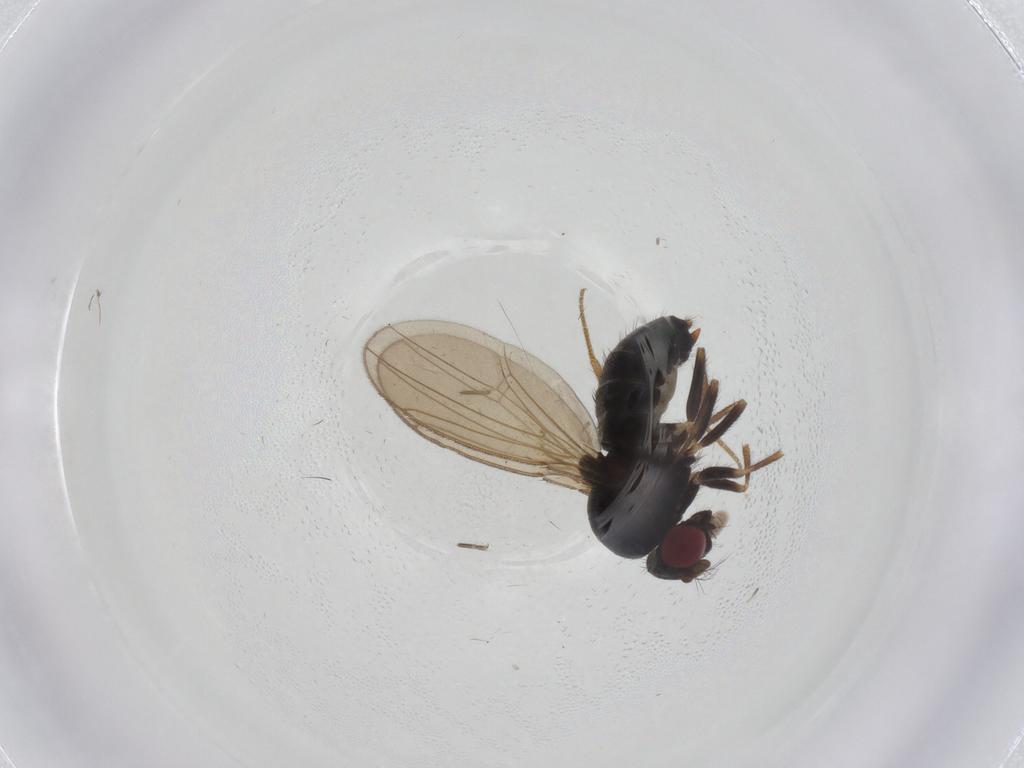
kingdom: Animalia
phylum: Arthropoda
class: Insecta
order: Diptera
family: Drosophilidae
